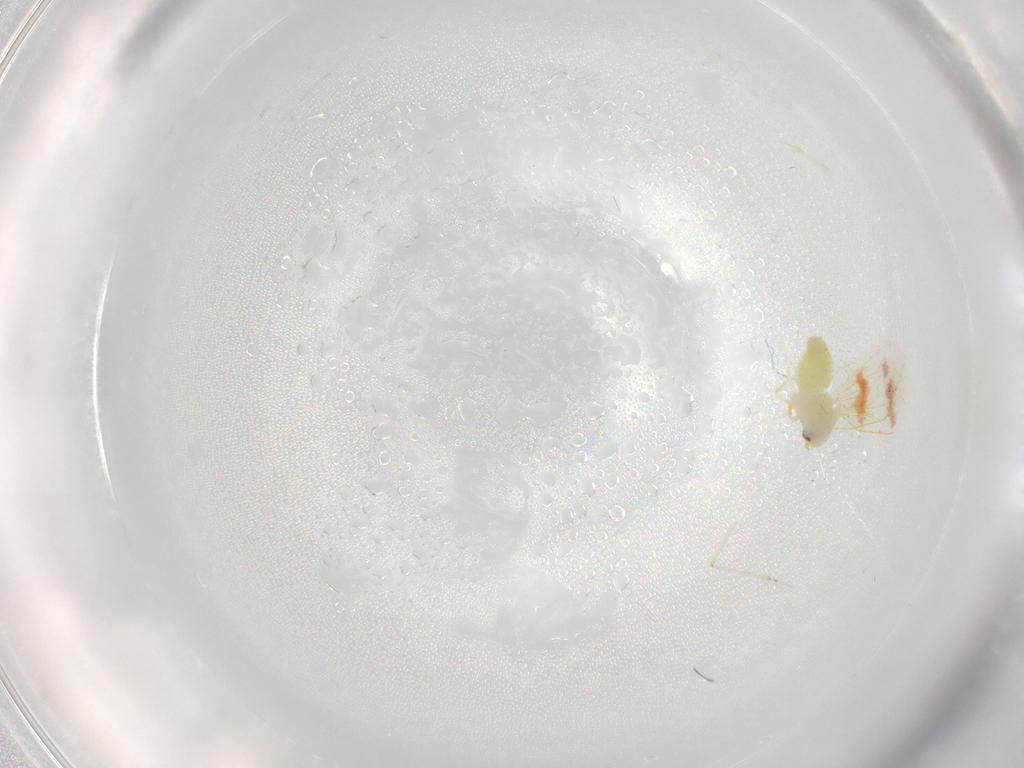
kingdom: Animalia
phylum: Arthropoda
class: Insecta
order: Hemiptera
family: Aleyrodidae
